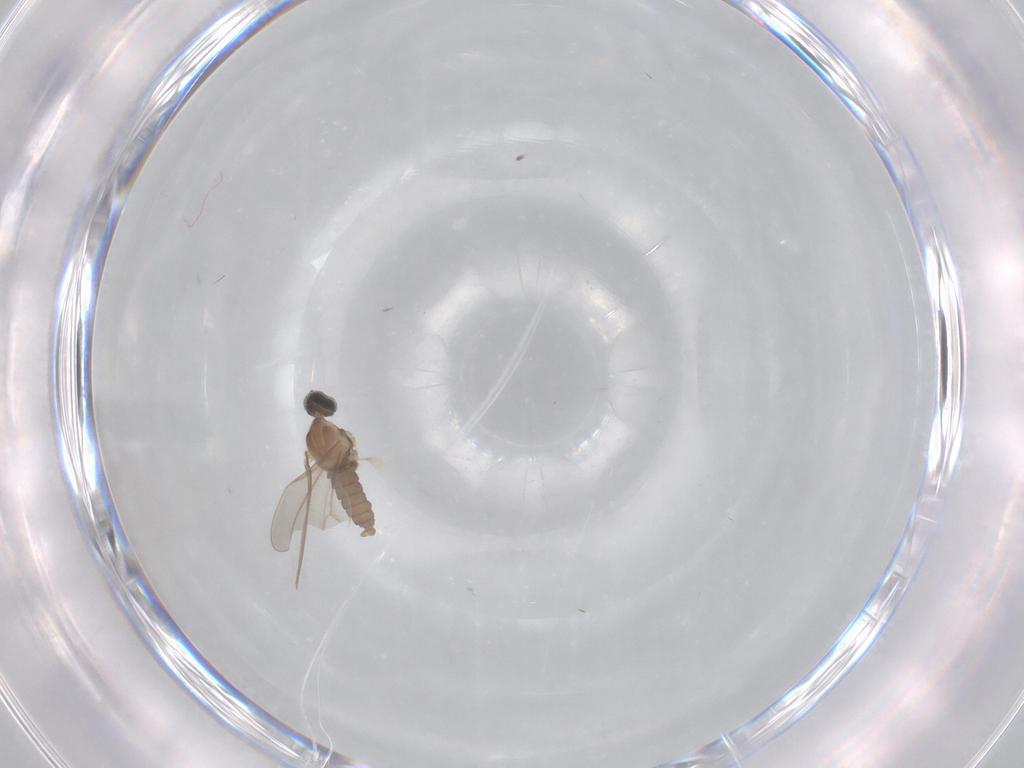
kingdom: Animalia
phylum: Arthropoda
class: Insecta
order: Diptera
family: Cecidomyiidae
